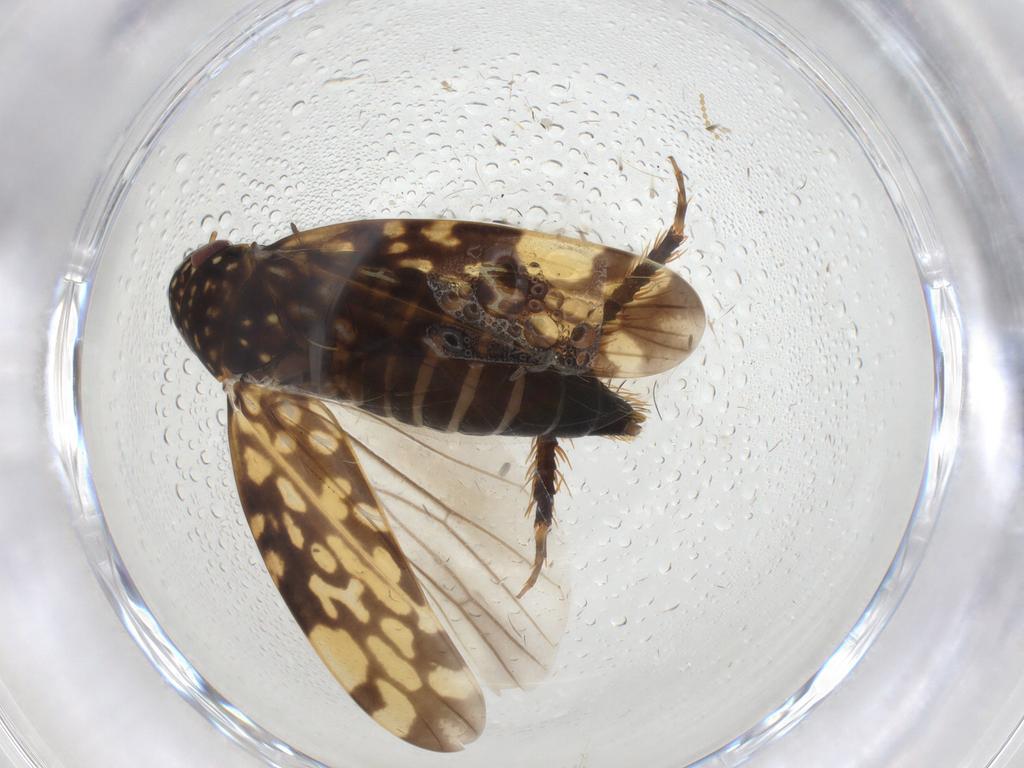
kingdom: Animalia
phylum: Arthropoda
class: Insecta
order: Hemiptera
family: Cicadellidae
